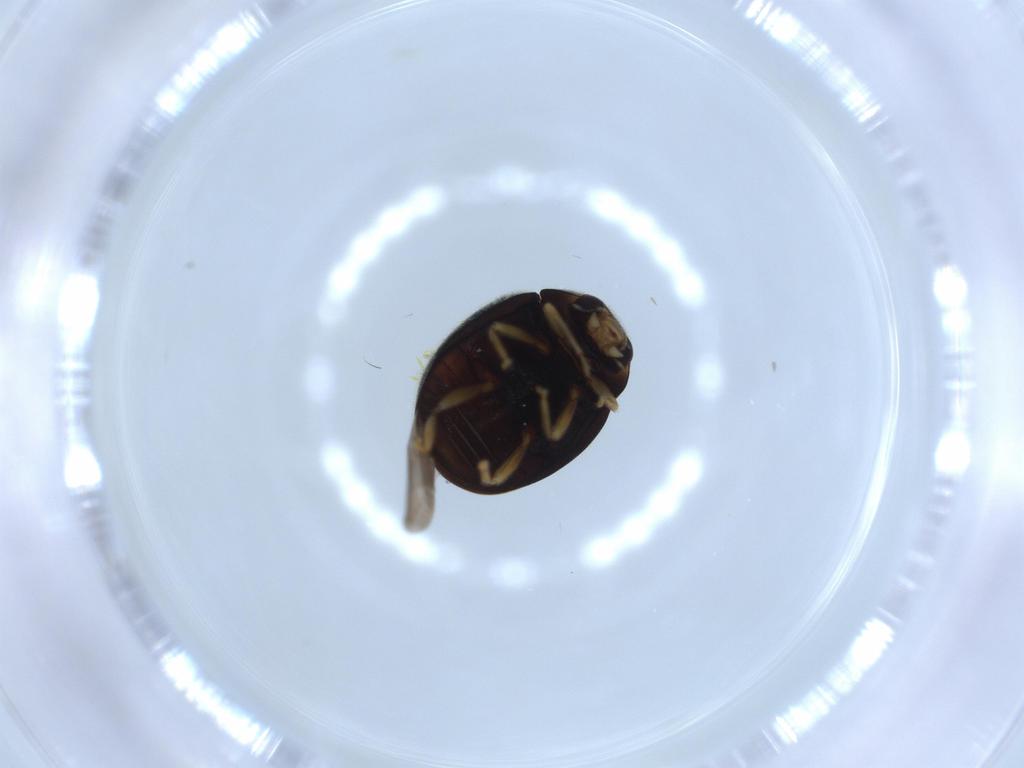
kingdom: Animalia
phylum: Arthropoda
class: Insecta
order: Coleoptera
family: Coccinellidae
